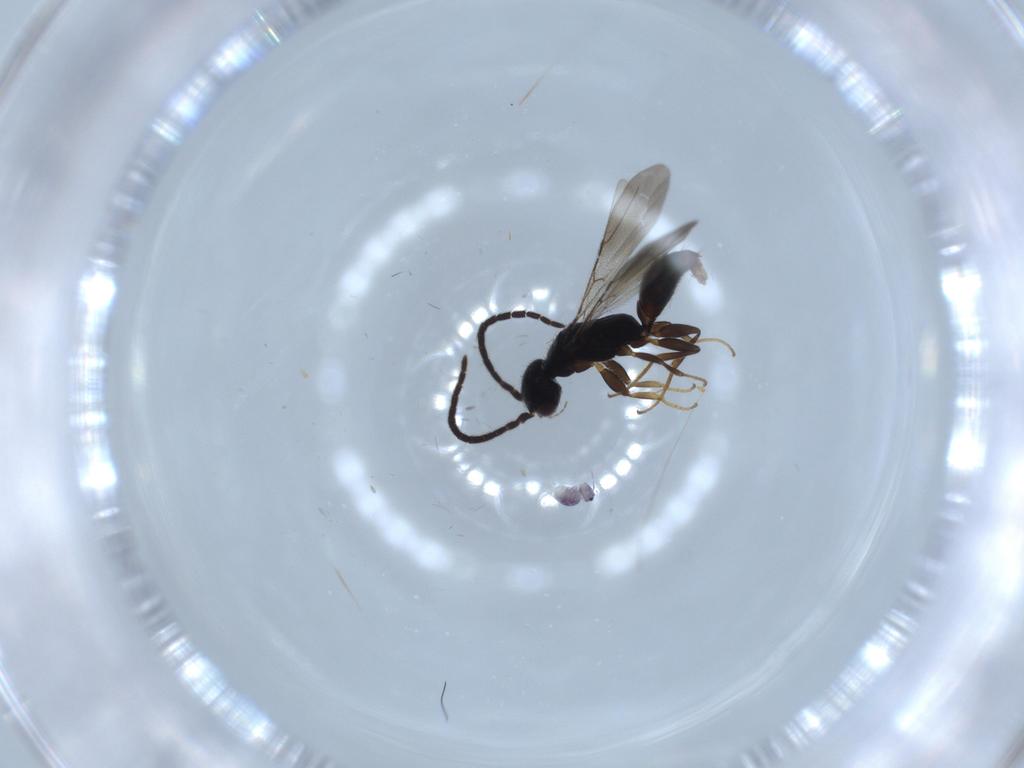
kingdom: Animalia
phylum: Arthropoda
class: Insecta
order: Hymenoptera
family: Bethylidae
